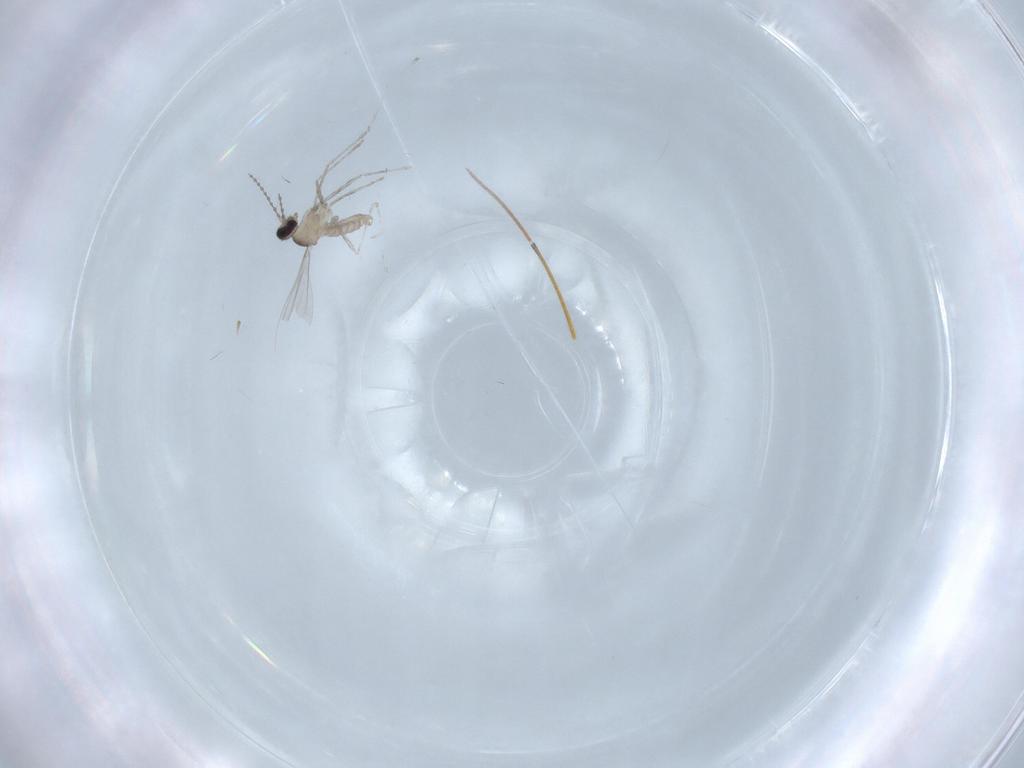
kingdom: Animalia
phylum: Arthropoda
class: Insecta
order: Diptera
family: Cecidomyiidae
